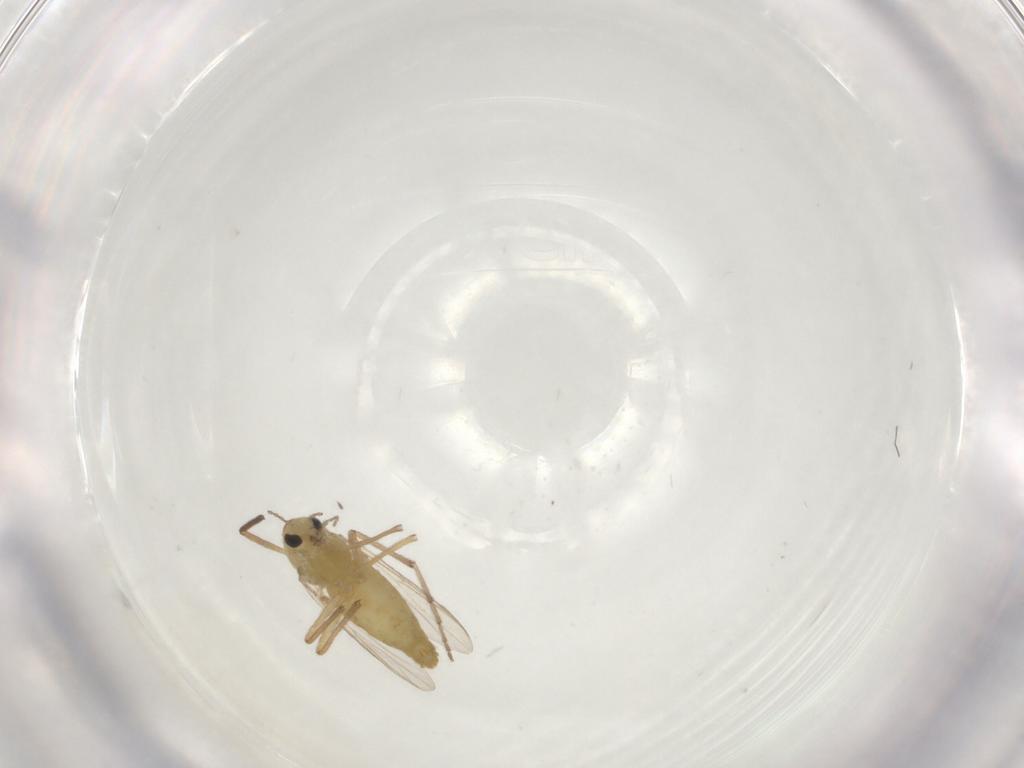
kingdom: Animalia
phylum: Arthropoda
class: Insecta
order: Diptera
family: Chironomidae
